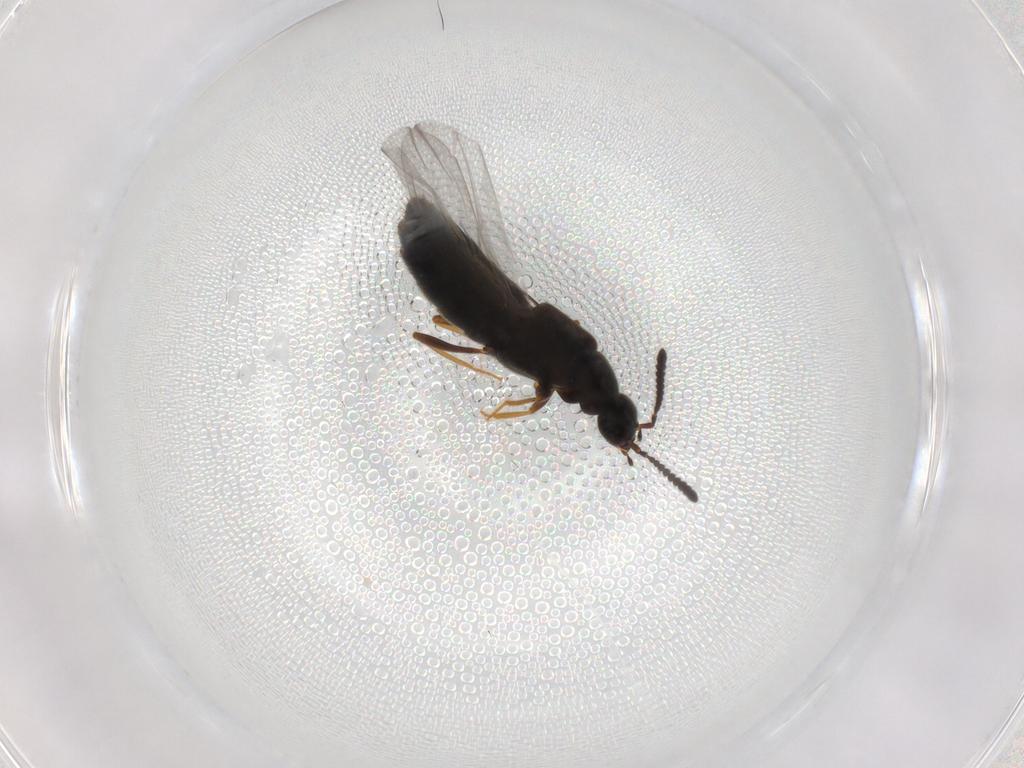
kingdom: Animalia
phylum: Arthropoda
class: Insecta
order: Coleoptera
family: Staphylinidae
